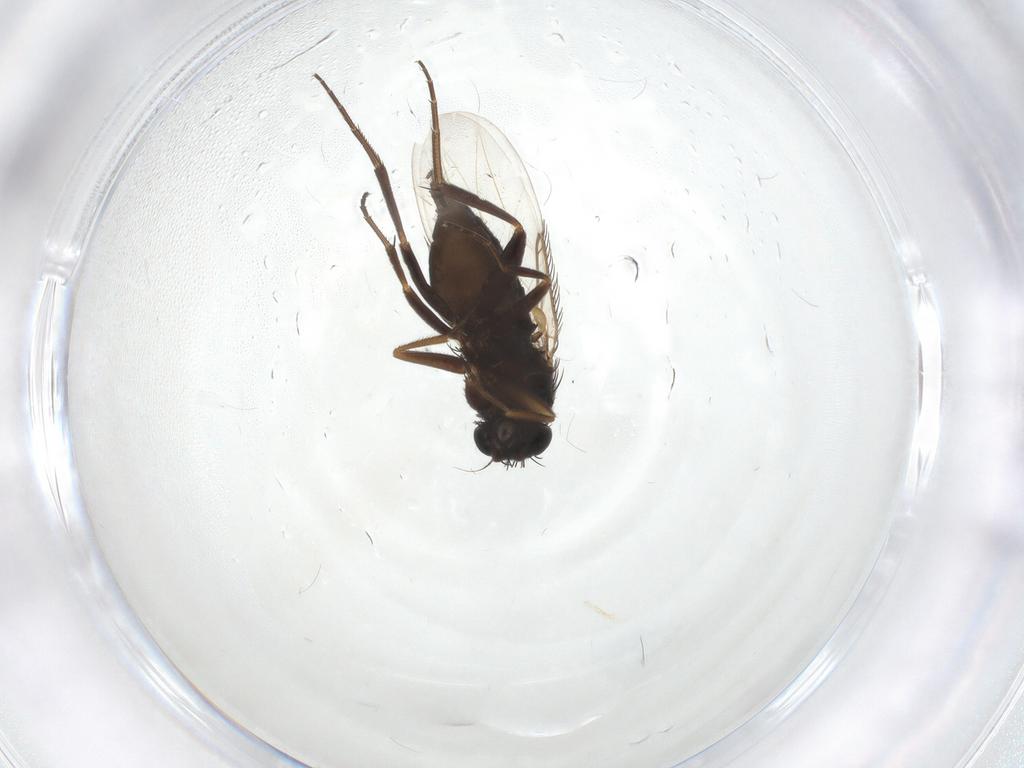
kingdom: Animalia
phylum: Arthropoda
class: Insecta
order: Diptera
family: Phoridae
